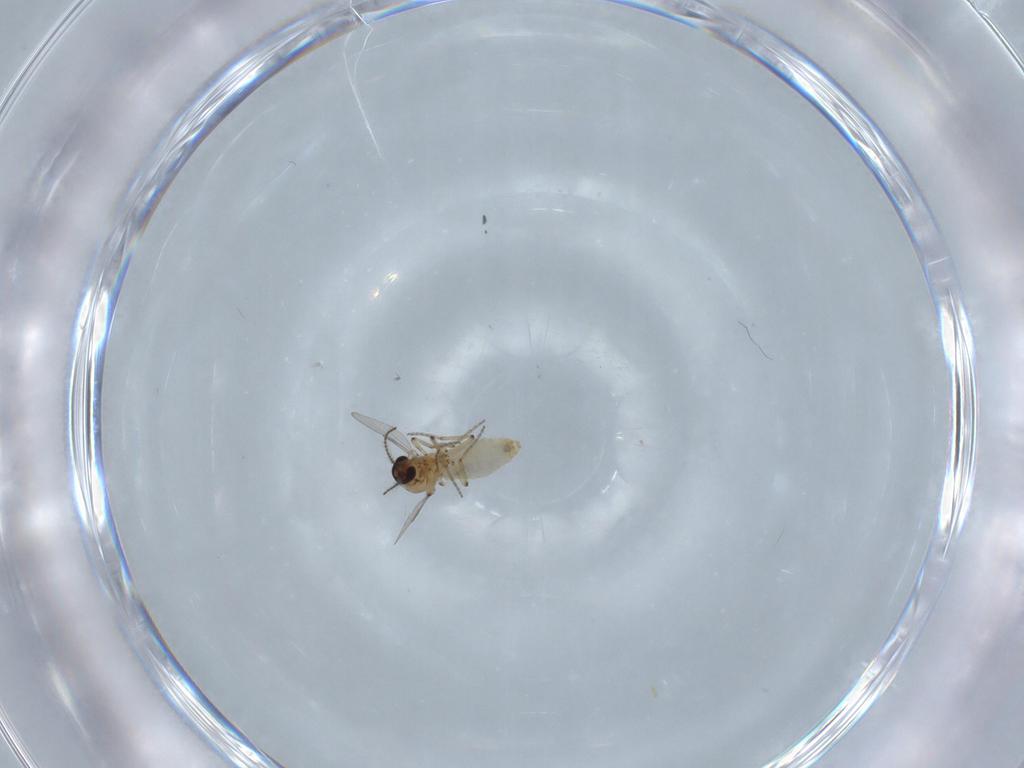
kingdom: Animalia
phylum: Arthropoda
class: Insecta
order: Diptera
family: Ceratopogonidae
